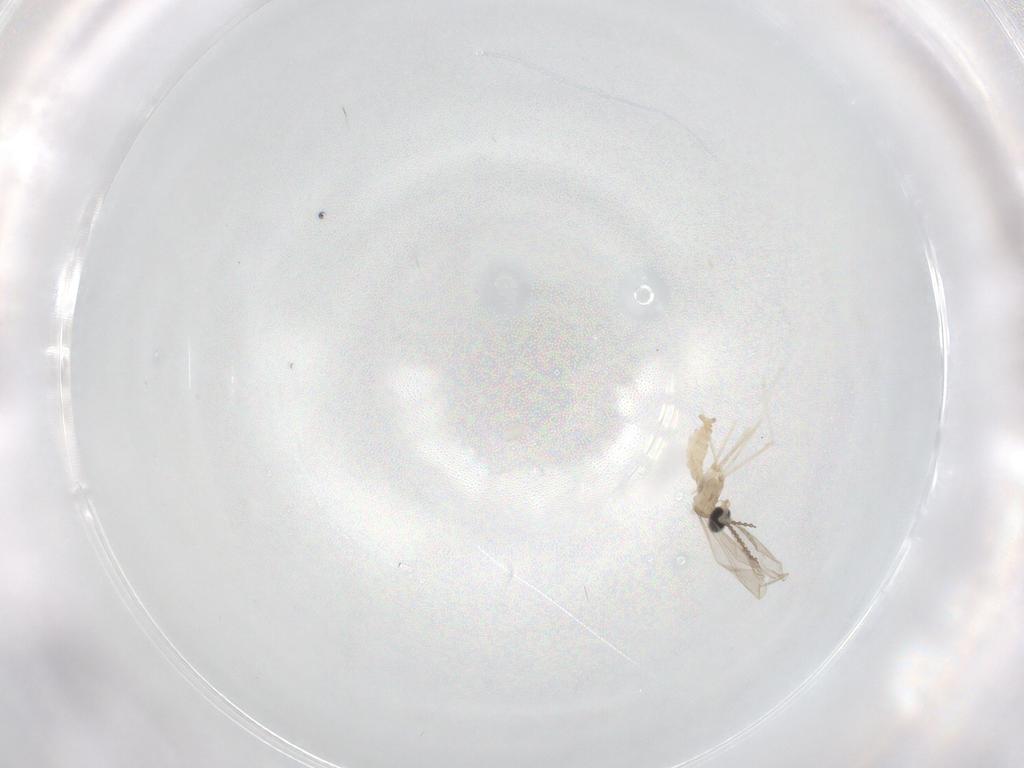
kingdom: Animalia
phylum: Arthropoda
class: Insecta
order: Diptera
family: Cecidomyiidae
